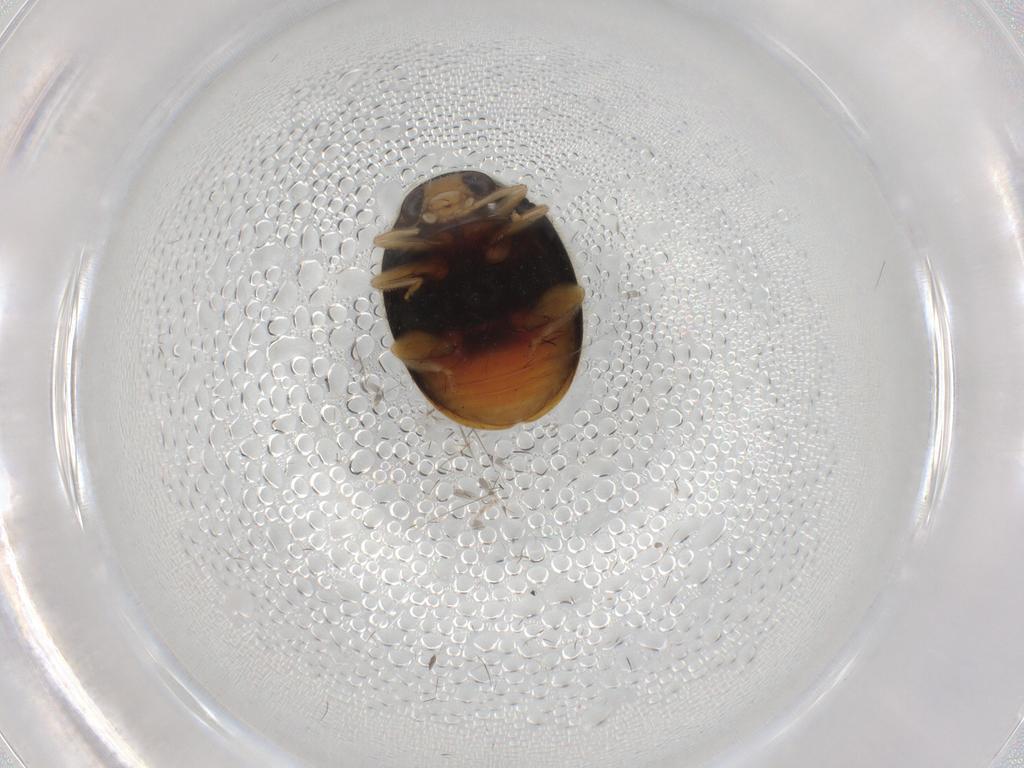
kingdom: Animalia
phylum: Arthropoda
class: Insecta
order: Coleoptera
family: Coccinellidae
